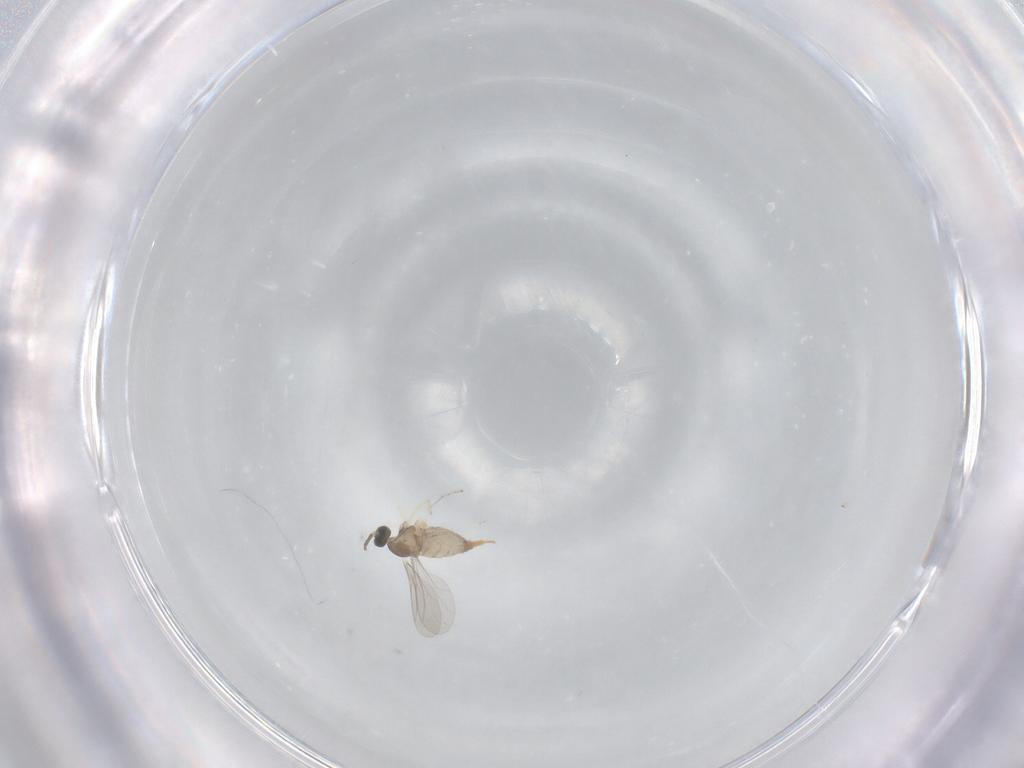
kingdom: Animalia
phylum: Arthropoda
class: Insecta
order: Diptera
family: Cecidomyiidae
